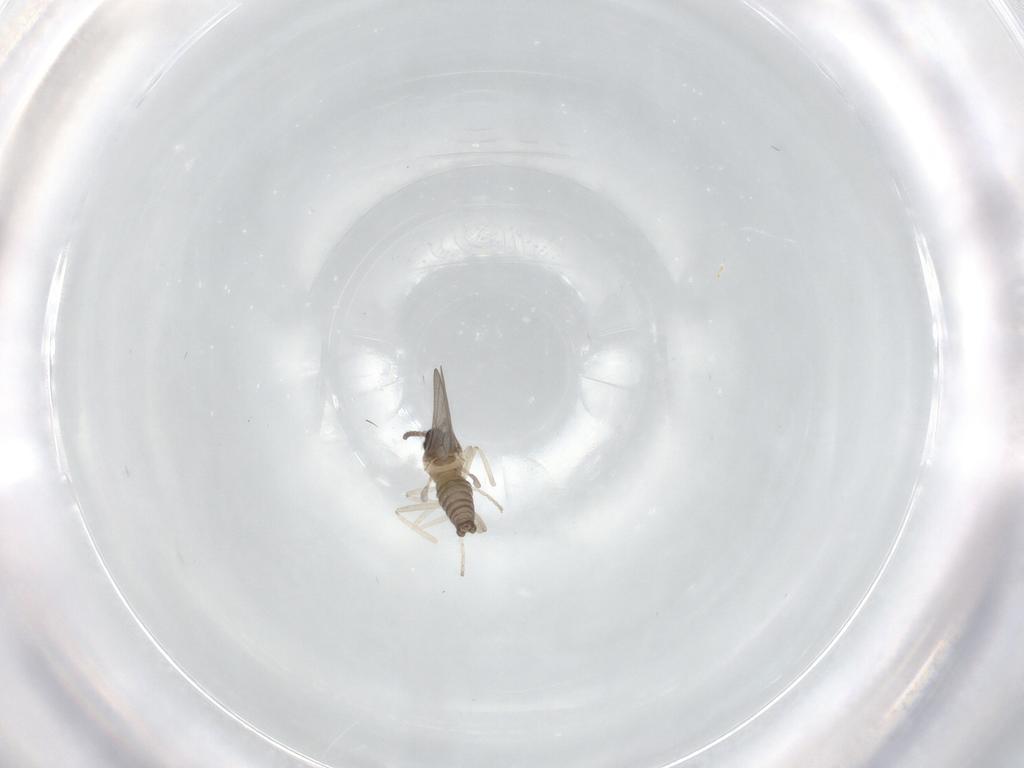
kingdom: Animalia
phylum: Arthropoda
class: Insecta
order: Diptera
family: Cecidomyiidae
